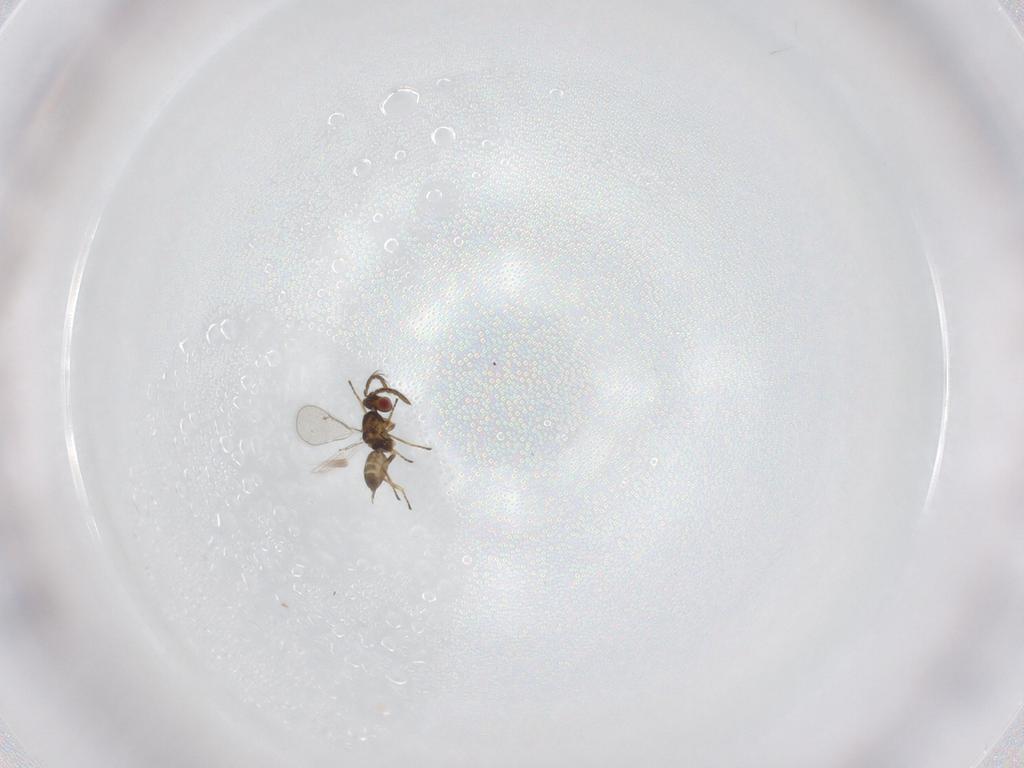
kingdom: Animalia
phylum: Arthropoda
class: Insecta
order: Hymenoptera
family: Eulophidae
